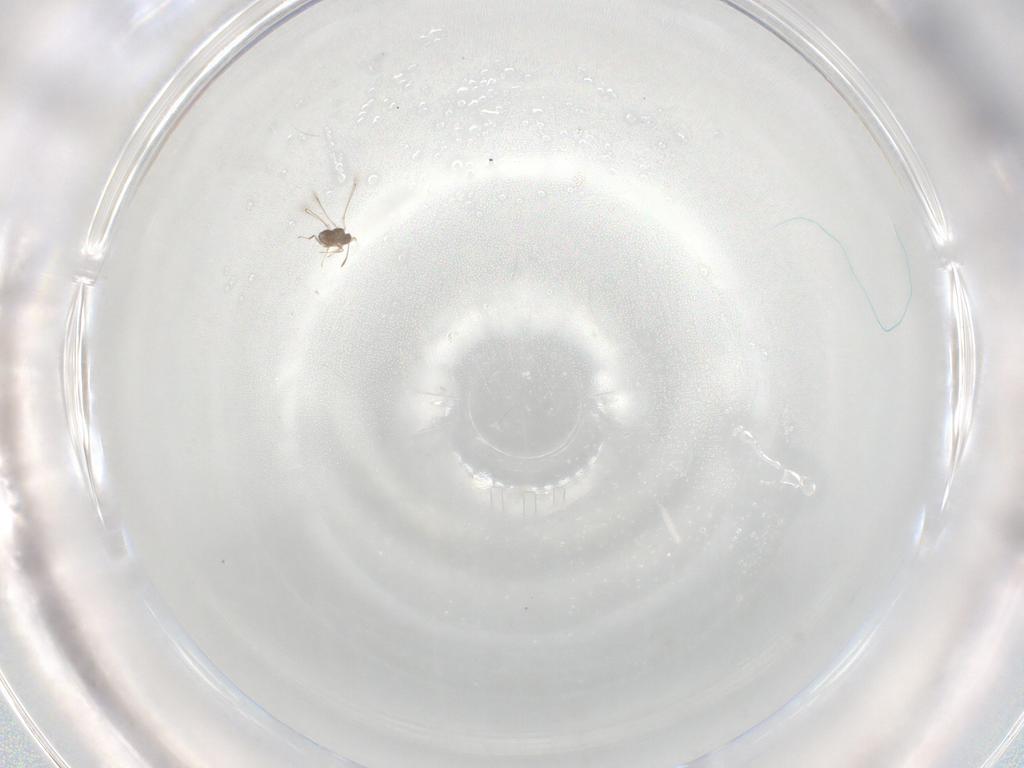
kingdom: Animalia
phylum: Arthropoda
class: Insecta
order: Hymenoptera
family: Mymaridae
